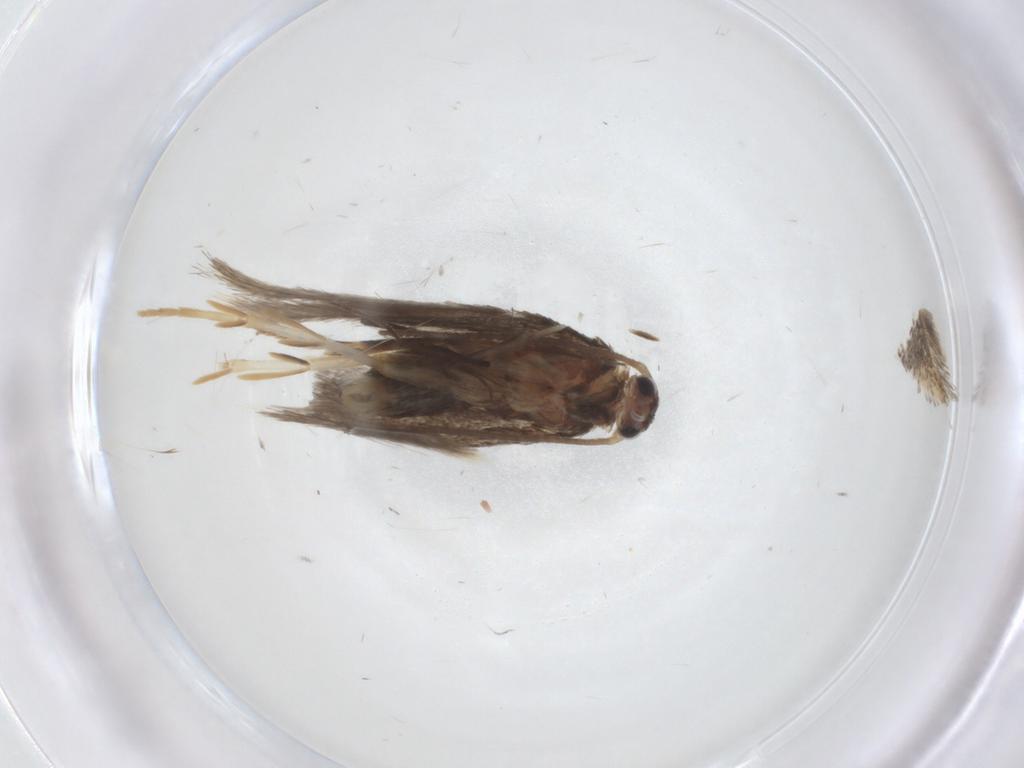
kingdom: Animalia
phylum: Arthropoda
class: Insecta
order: Lepidoptera
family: Elachistidae
